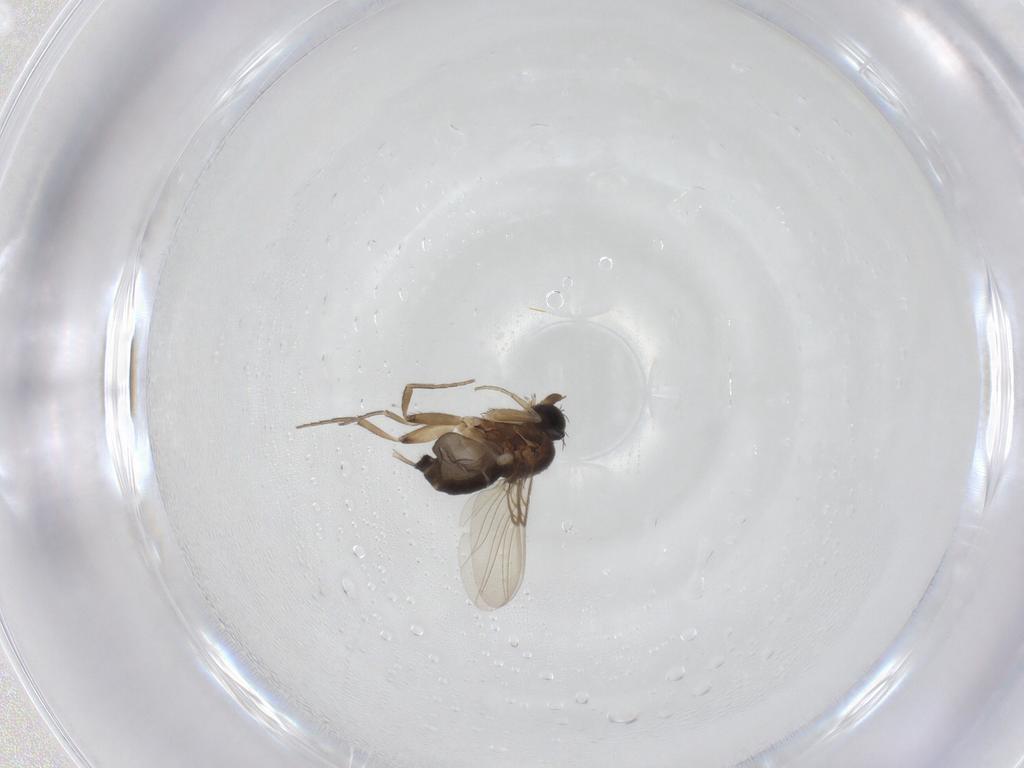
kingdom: Animalia
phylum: Arthropoda
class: Insecta
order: Diptera
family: Phoridae
